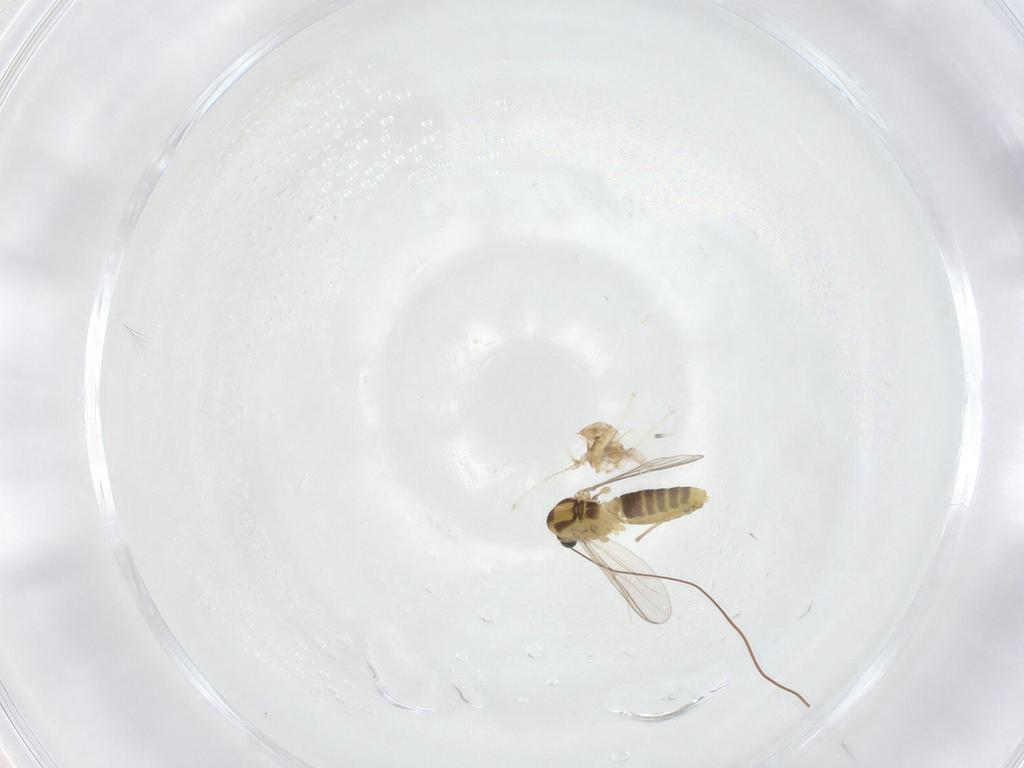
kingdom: Animalia
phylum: Arthropoda
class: Insecta
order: Diptera
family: Cecidomyiidae
